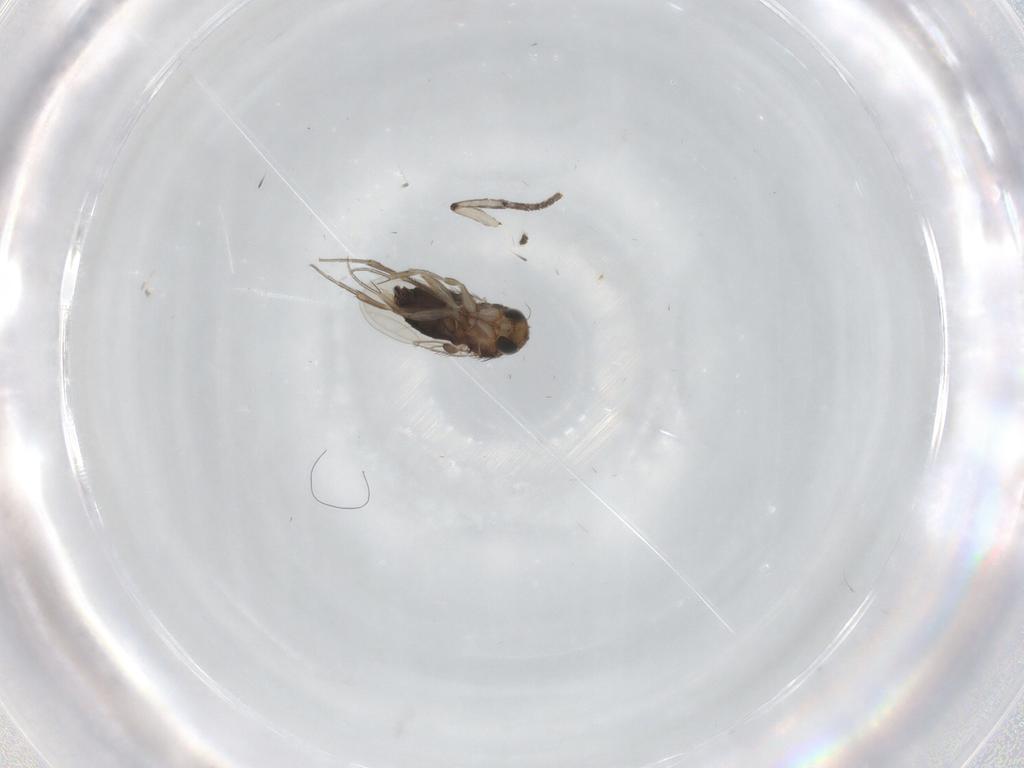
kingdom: Animalia
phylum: Arthropoda
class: Insecta
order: Diptera
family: Phoridae
